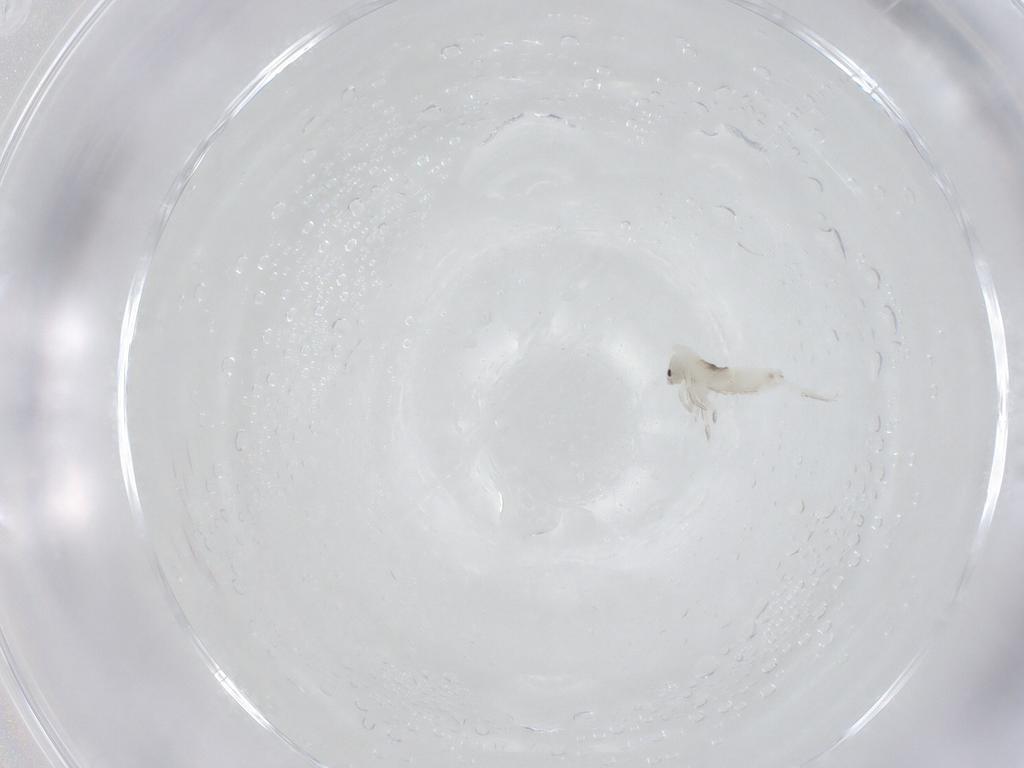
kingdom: Animalia
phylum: Arthropoda
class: Collembola
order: Entomobryomorpha
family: Entomobryidae
